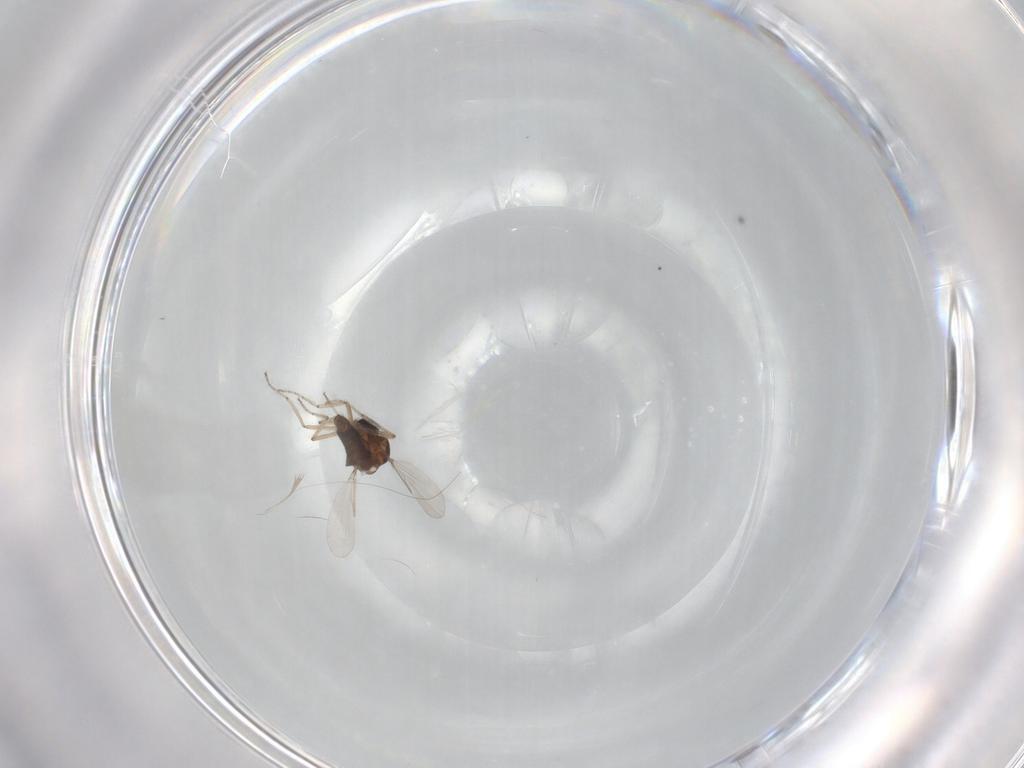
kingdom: Animalia
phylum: Arthropoda
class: Insecta
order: Diptera
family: Ceratopogonidae
